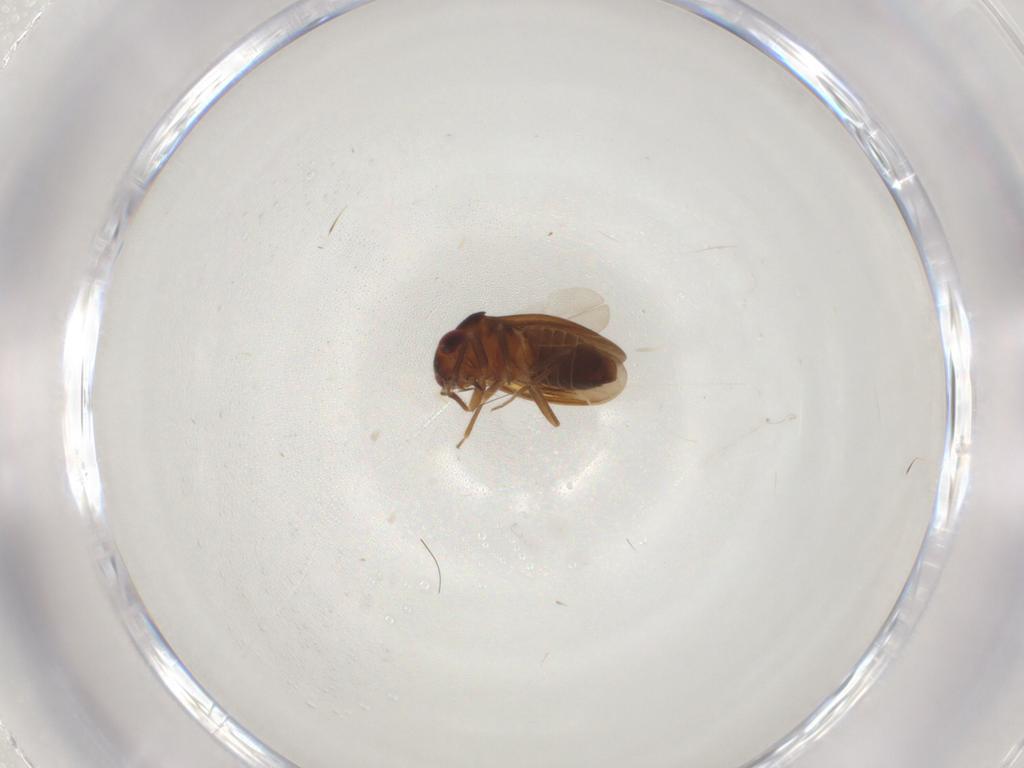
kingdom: Animalia
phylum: Arthropoda
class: Insecta
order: Hemiptera
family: Schizopteridae
